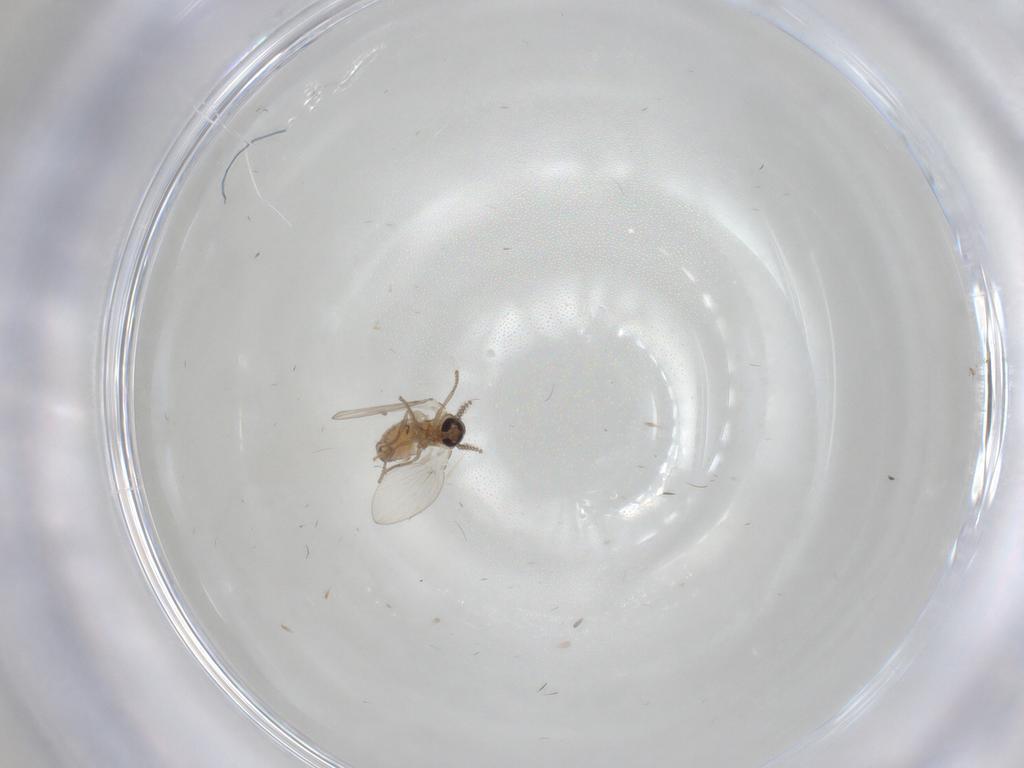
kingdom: Animalia
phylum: Arthropoda
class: Insecta
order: Diptera
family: Psychodidae
